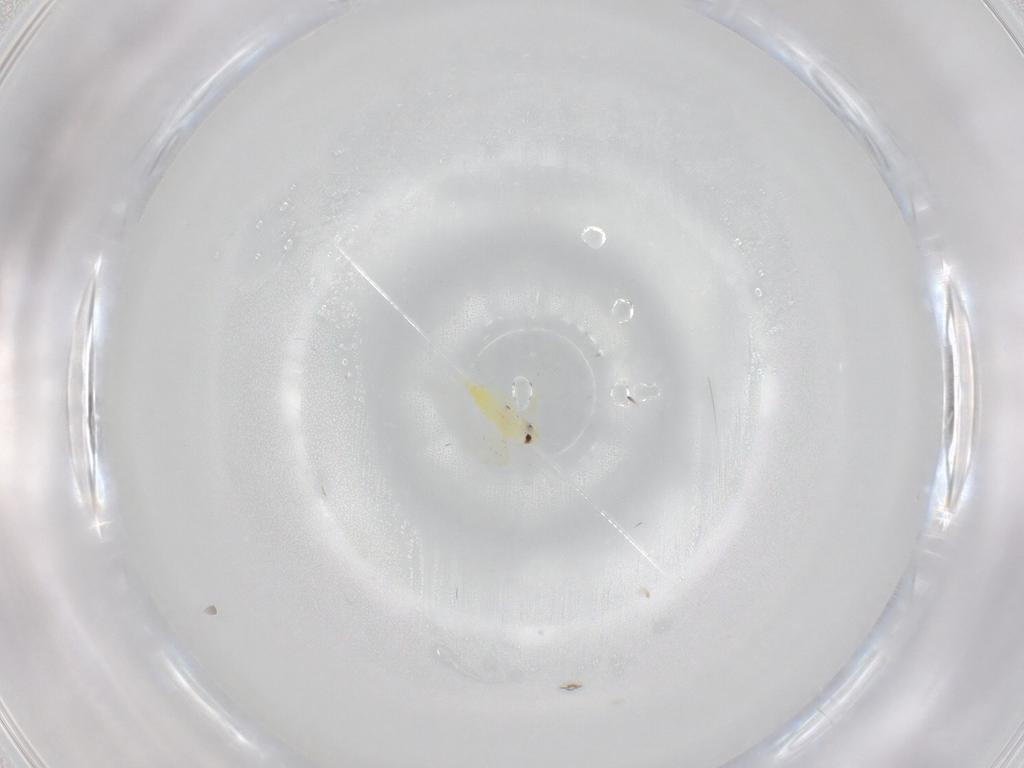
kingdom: Animalia
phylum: Arthropoda
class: Insecta
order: Hemiptera
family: Aleyrodidae
